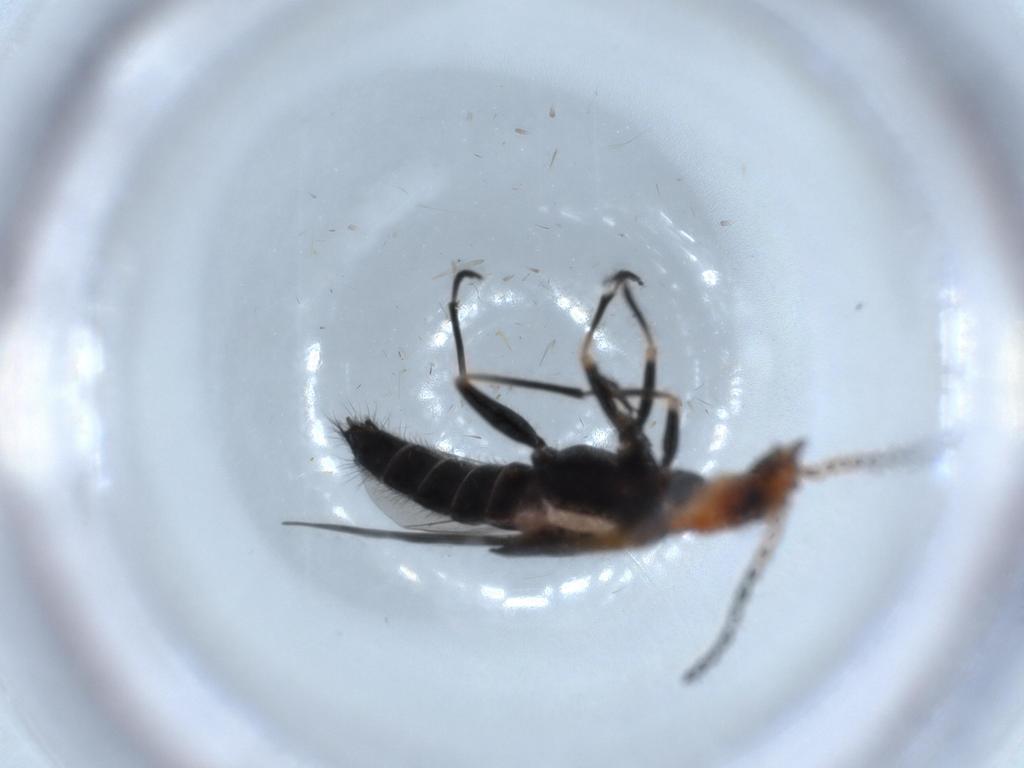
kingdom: Animalia
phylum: Arthropoda
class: Insecta
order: Coleoptera
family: Melyridae
